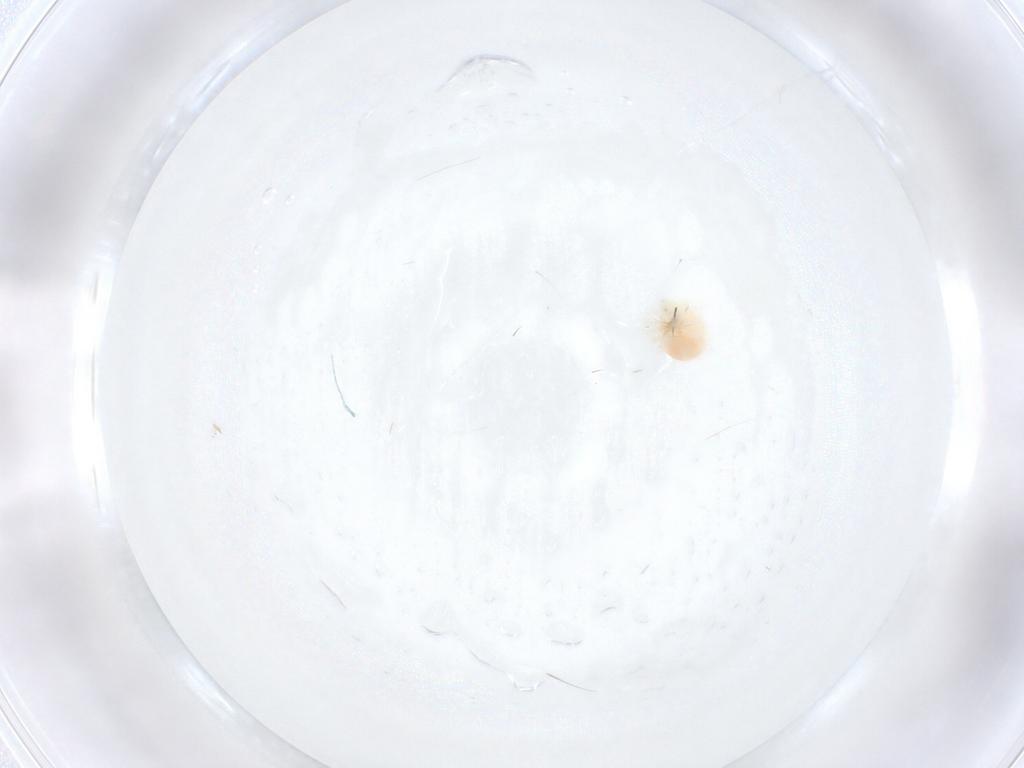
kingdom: Animalia
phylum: Arthropoda
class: Arachnida
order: Trombidiformes
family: Anystidae
